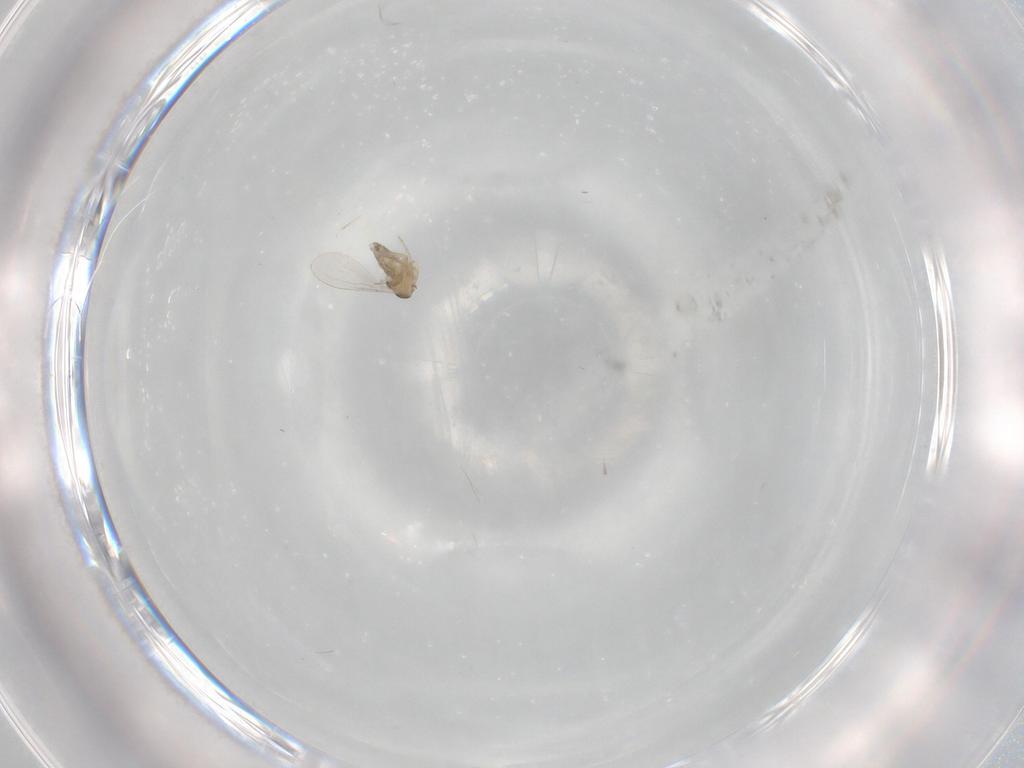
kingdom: Animalia
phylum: Arthropoda
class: Insecta
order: Diptera
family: Cecidomyiidae
